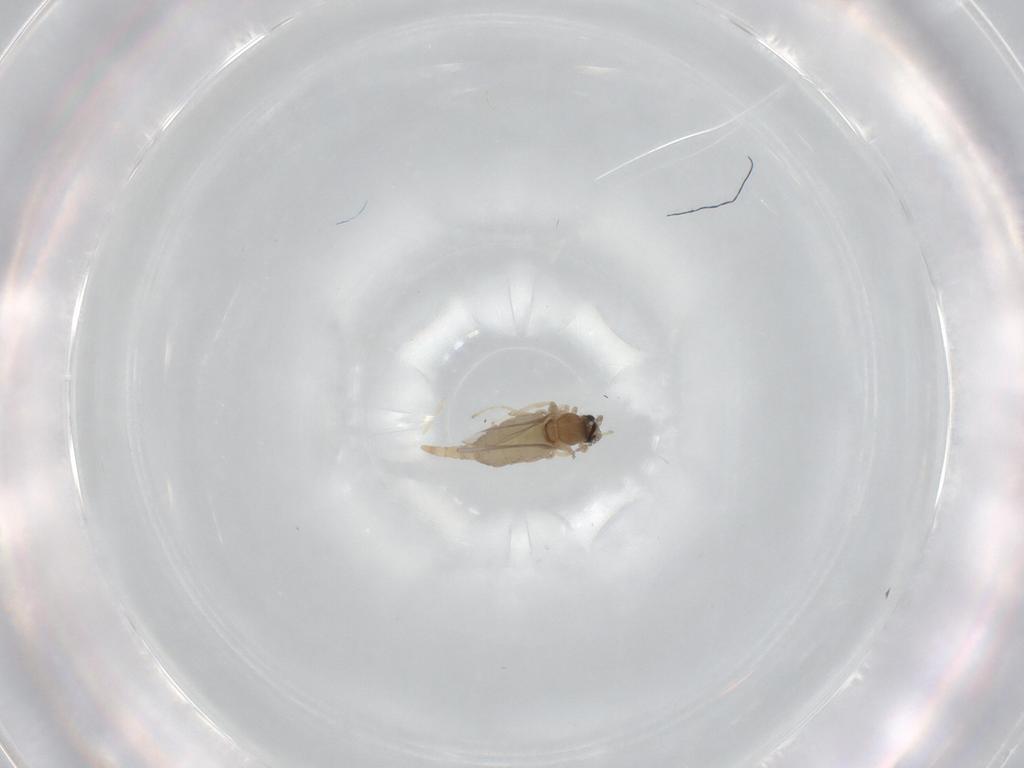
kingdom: Animalia
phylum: Arthropoda
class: Insecta
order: Diptera
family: Cecidomyiidae
